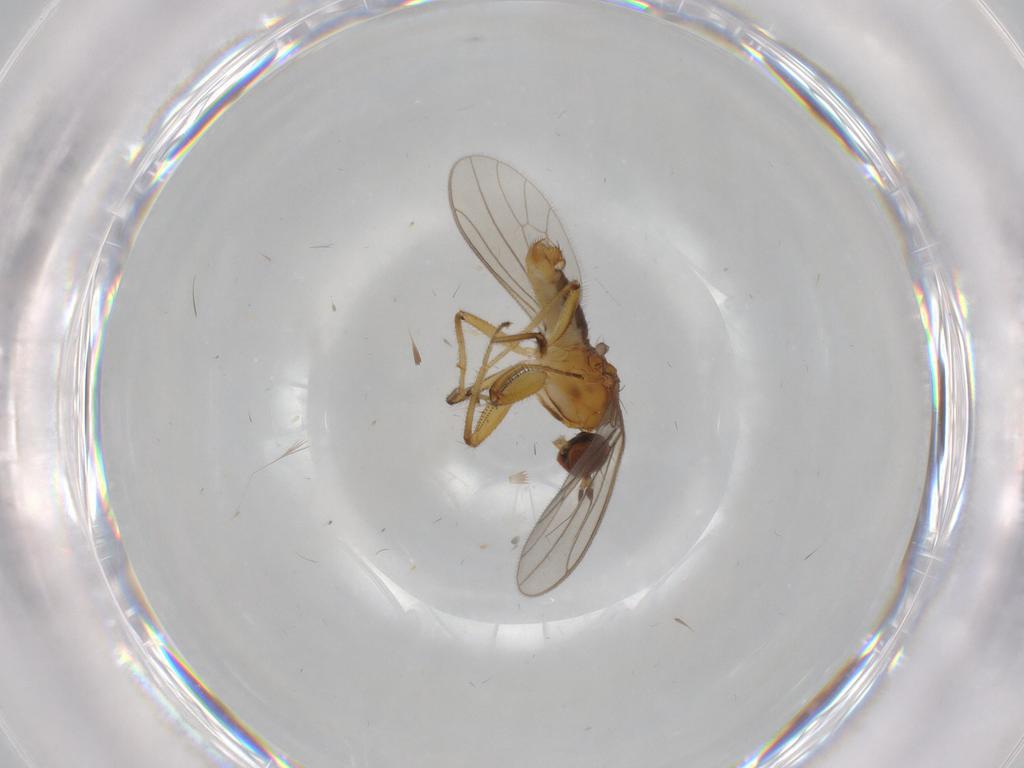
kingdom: Animalia
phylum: Arthropoda
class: Insecta
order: Diptera
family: Empididae
